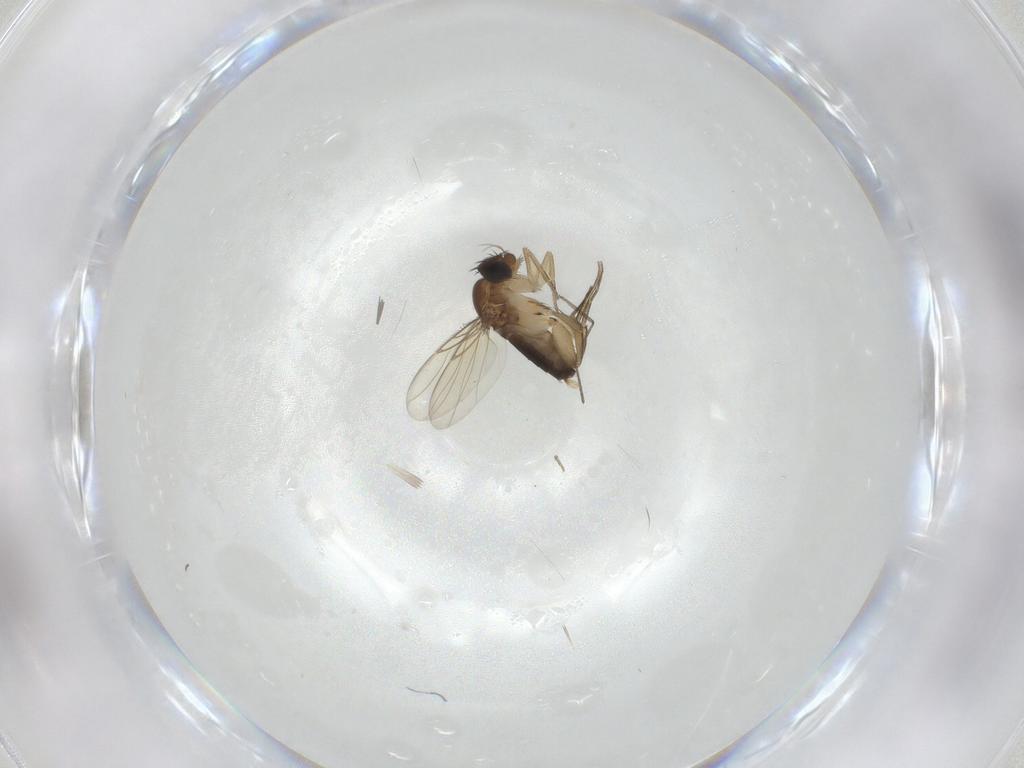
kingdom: Animalia
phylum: Arthropoda
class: Insecta
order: Diptera
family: Phoridae
